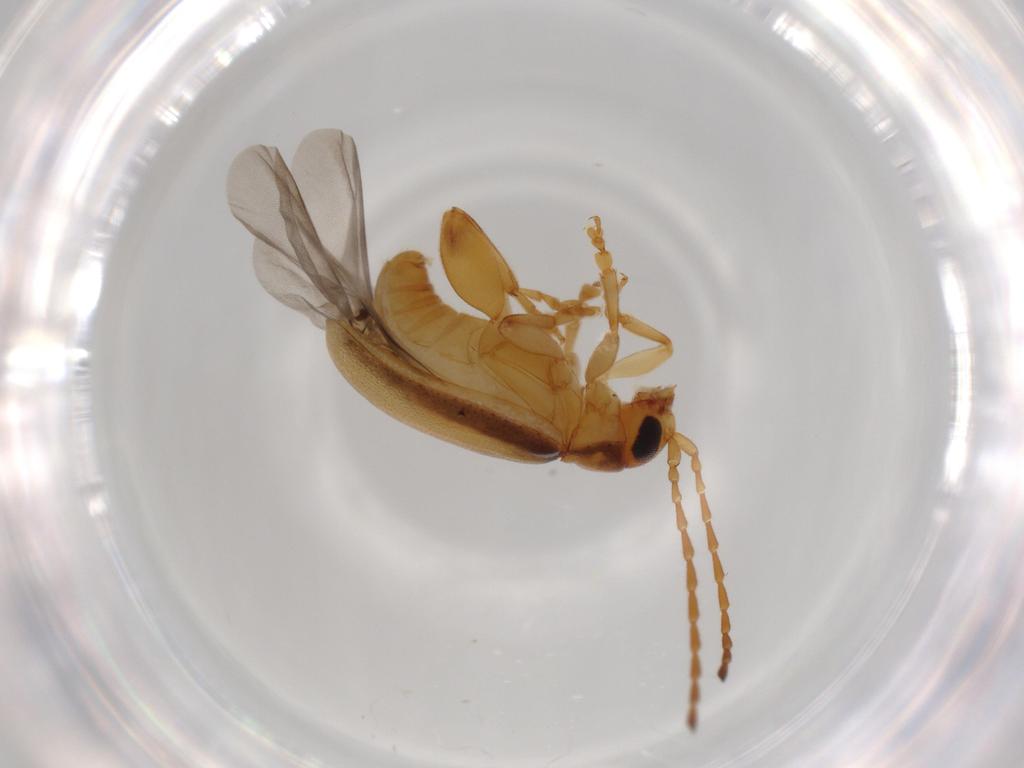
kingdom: Animalia
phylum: Arthropoda
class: Insecta
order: Coleoptera
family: Chrysomelidae
